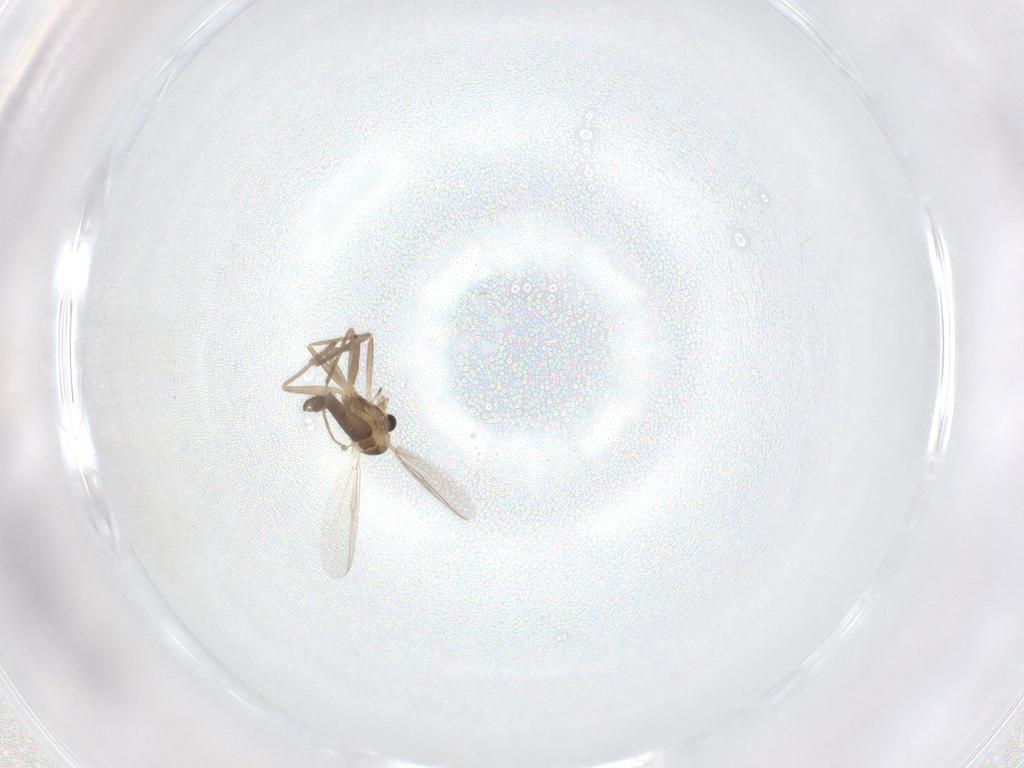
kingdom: Animalia
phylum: Arthropoda
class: Insecta
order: Diptera
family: Chironomidae
